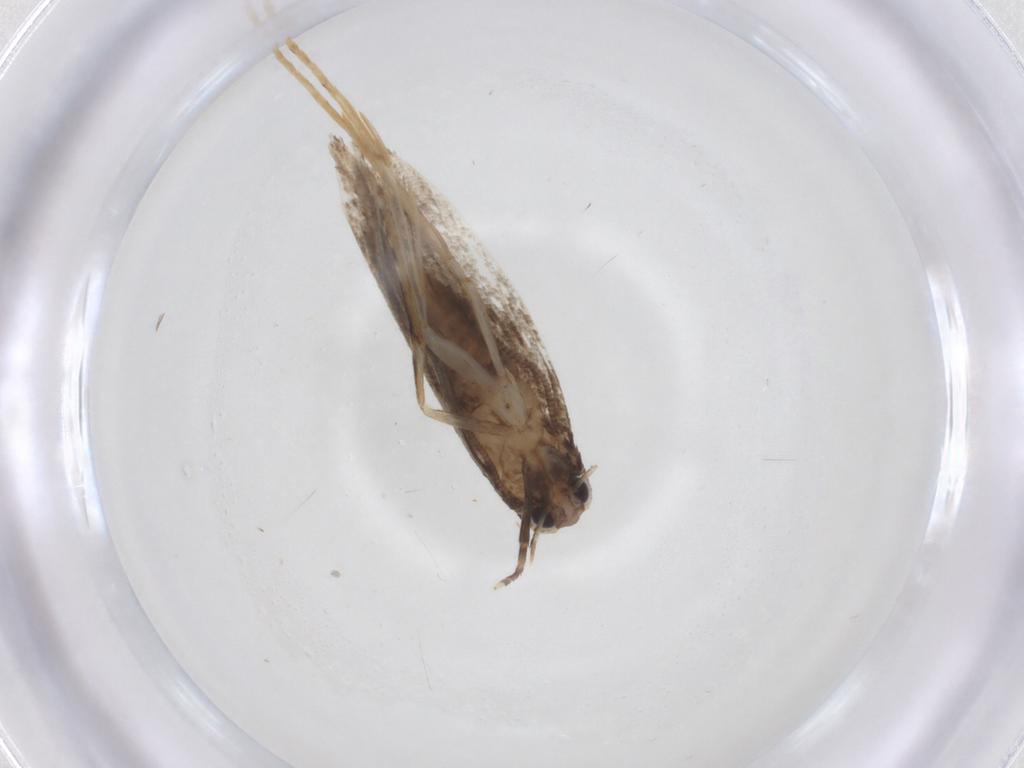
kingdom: Animalia
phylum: Arthropoda
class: Insecta
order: Lepidoptera
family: Tineidae
